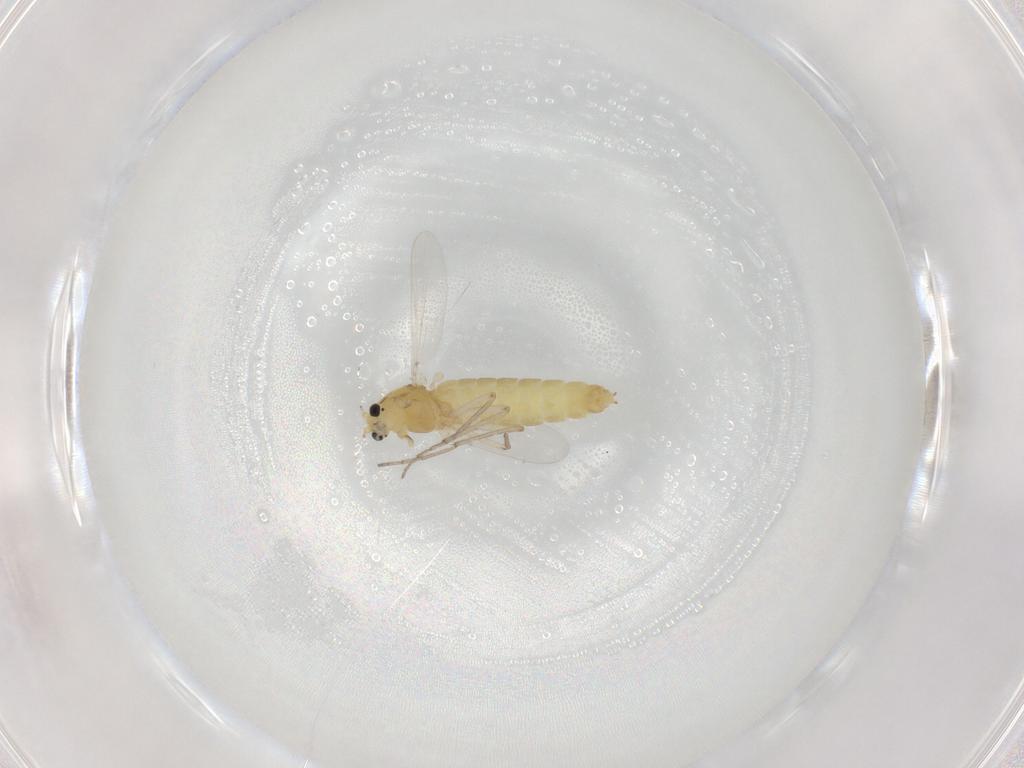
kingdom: Animalia
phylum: Arthropoda
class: Insecta
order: Diptera
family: Chironomidae
